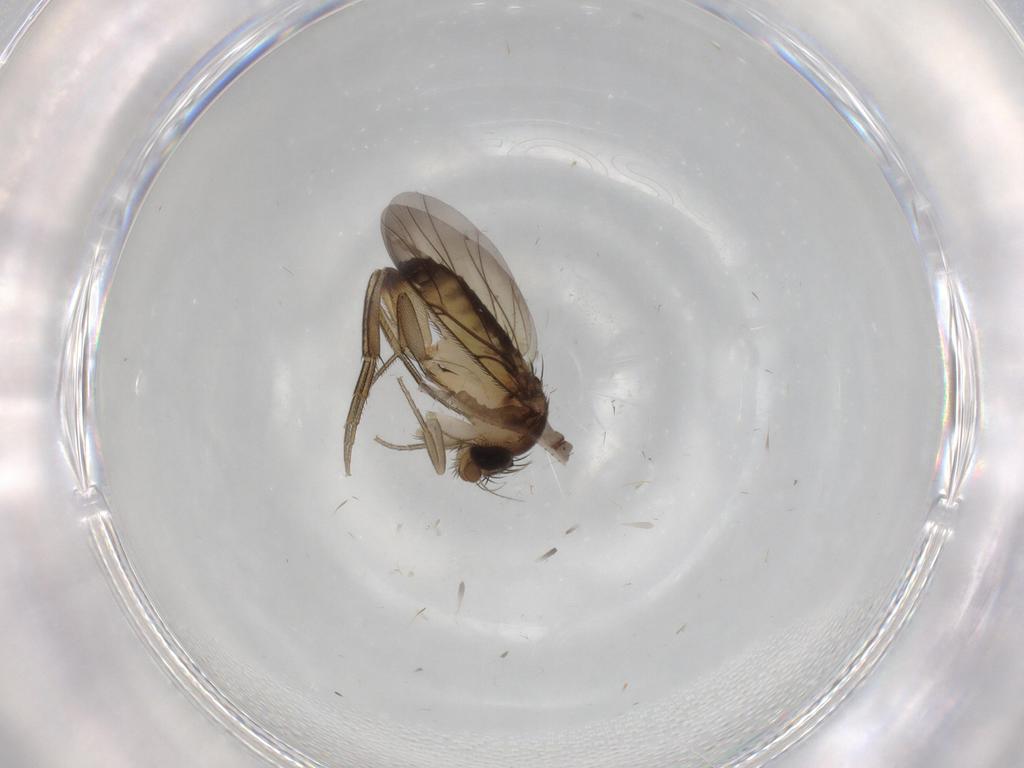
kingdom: Animalia
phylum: Arthropoda
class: Insecta
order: Diptera
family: Phoridae
